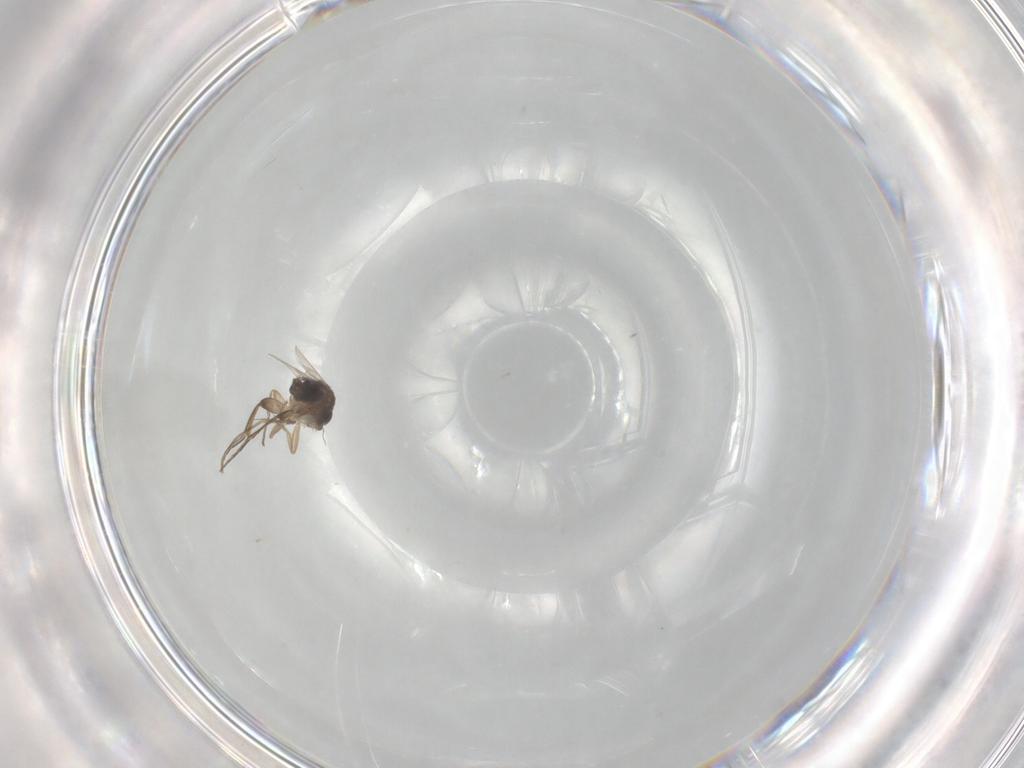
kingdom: Animalia
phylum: Arthropoda
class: Insecta
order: Diptera
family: Phoridae
